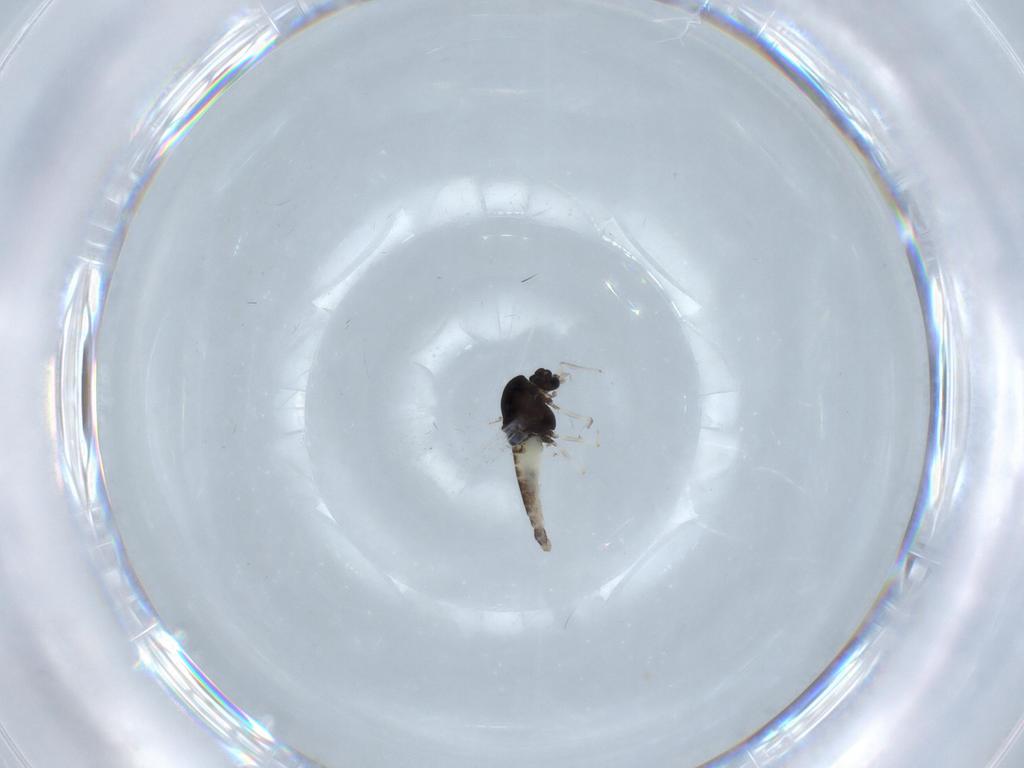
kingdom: Animalia
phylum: Arthropoda
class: Insecta
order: Diptera
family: Chironomidae
